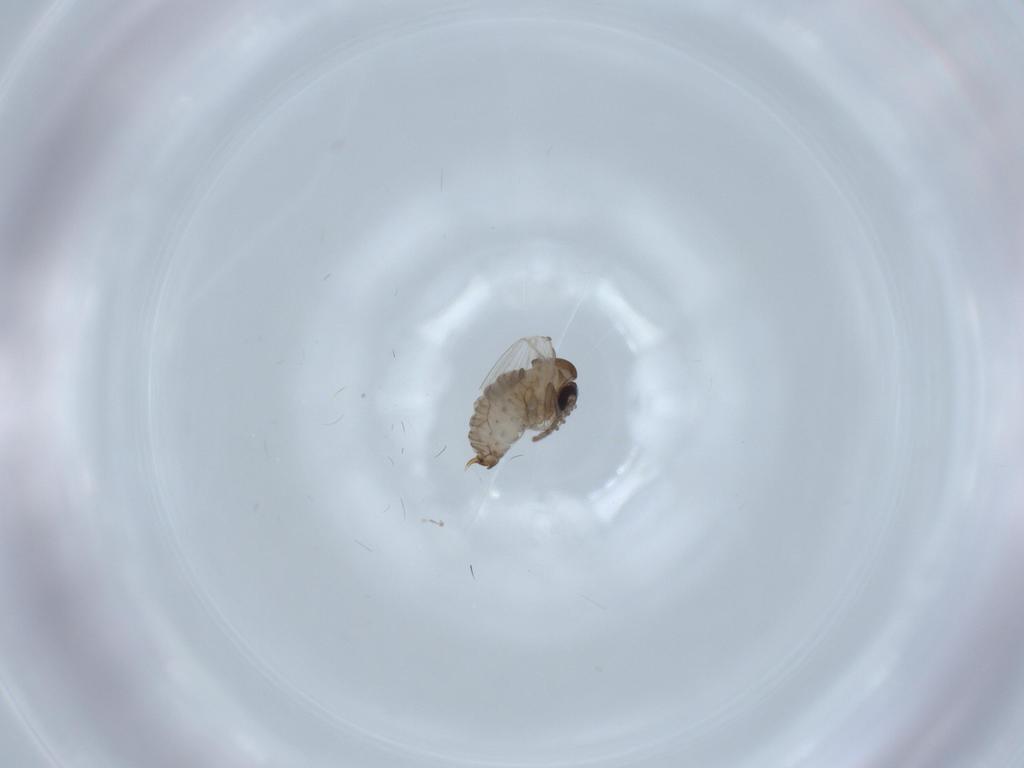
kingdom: Animalia
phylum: Arthropoda
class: Insecta
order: Diptera
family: Psychodidae
